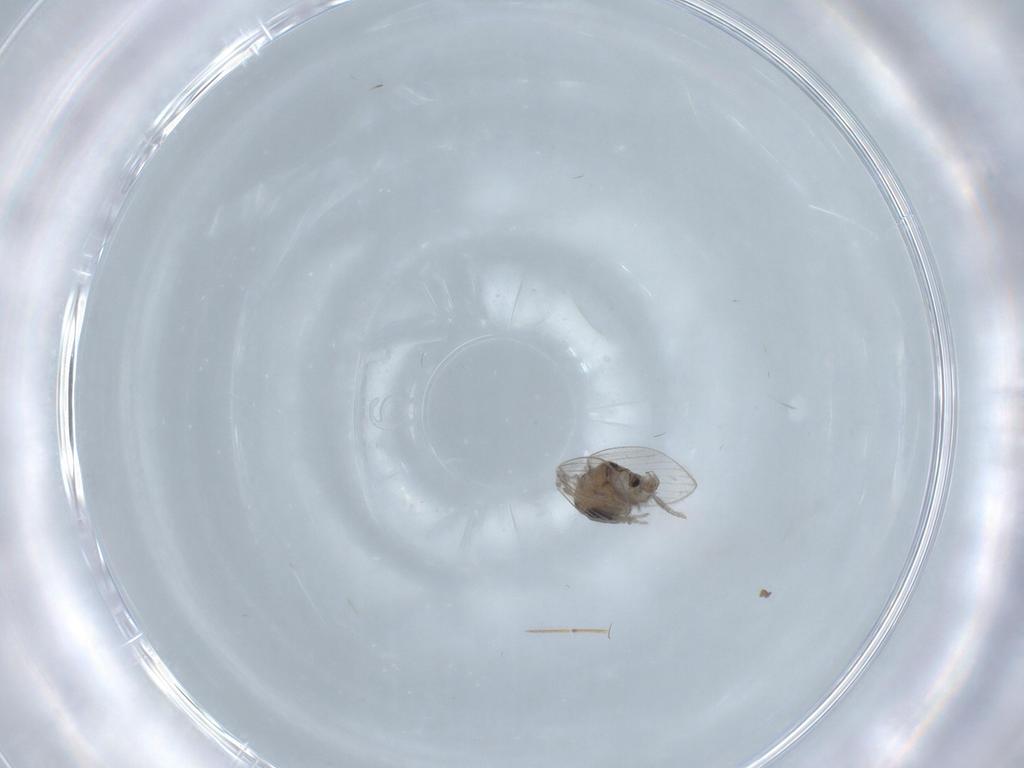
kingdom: Animalia
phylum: Arthropoda
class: Insecta
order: Diptera
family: Psychodidae
